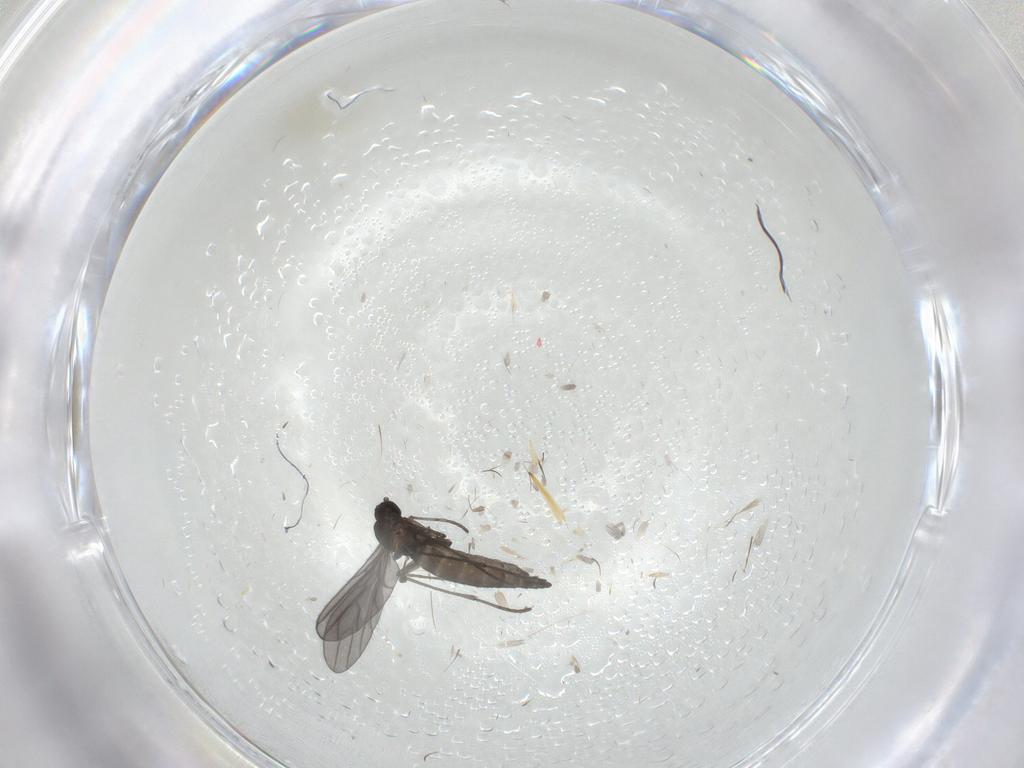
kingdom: Animalia
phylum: Arthropoda
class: Insecta
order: Diptera
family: Sciaridae
